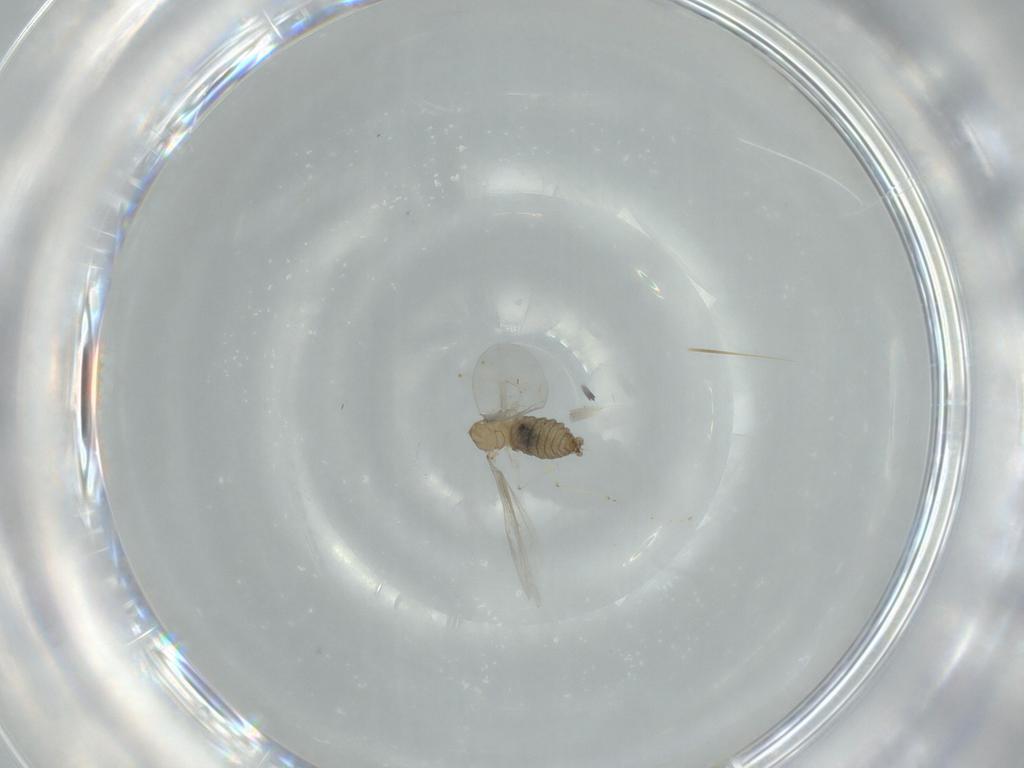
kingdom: Animalia
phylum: Arthropoda
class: Insecta
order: Diptera
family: Cecidomyiidae
